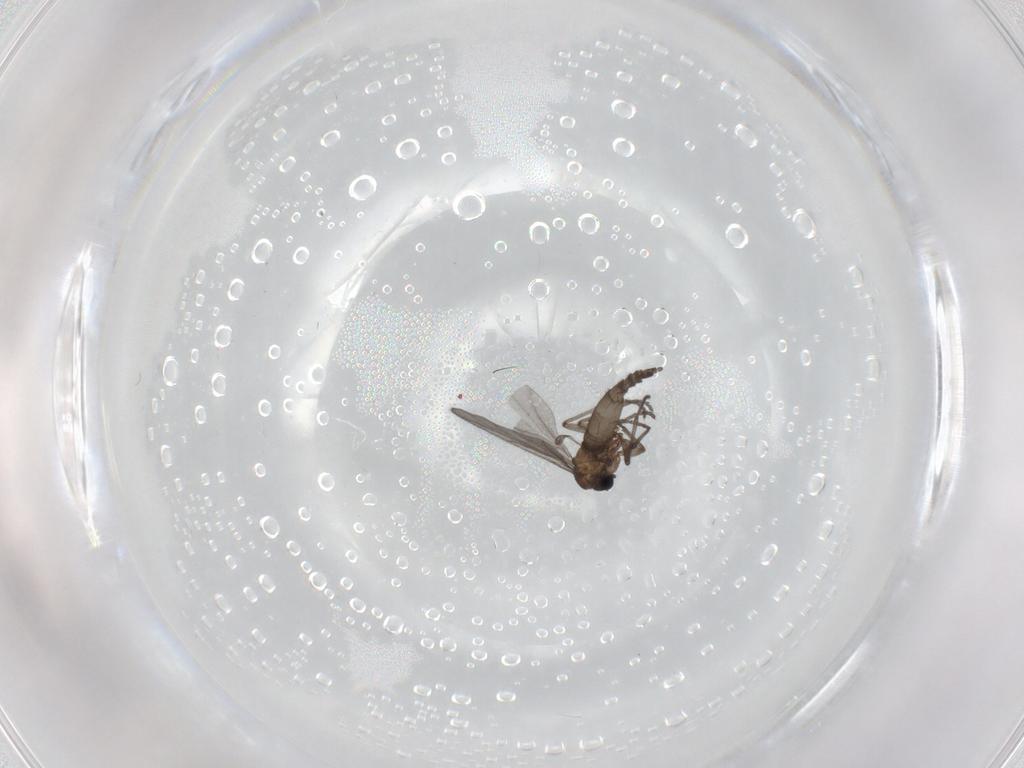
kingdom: Animalia
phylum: Arthropoda
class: Insecta
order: Diptera
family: Sciaridae
